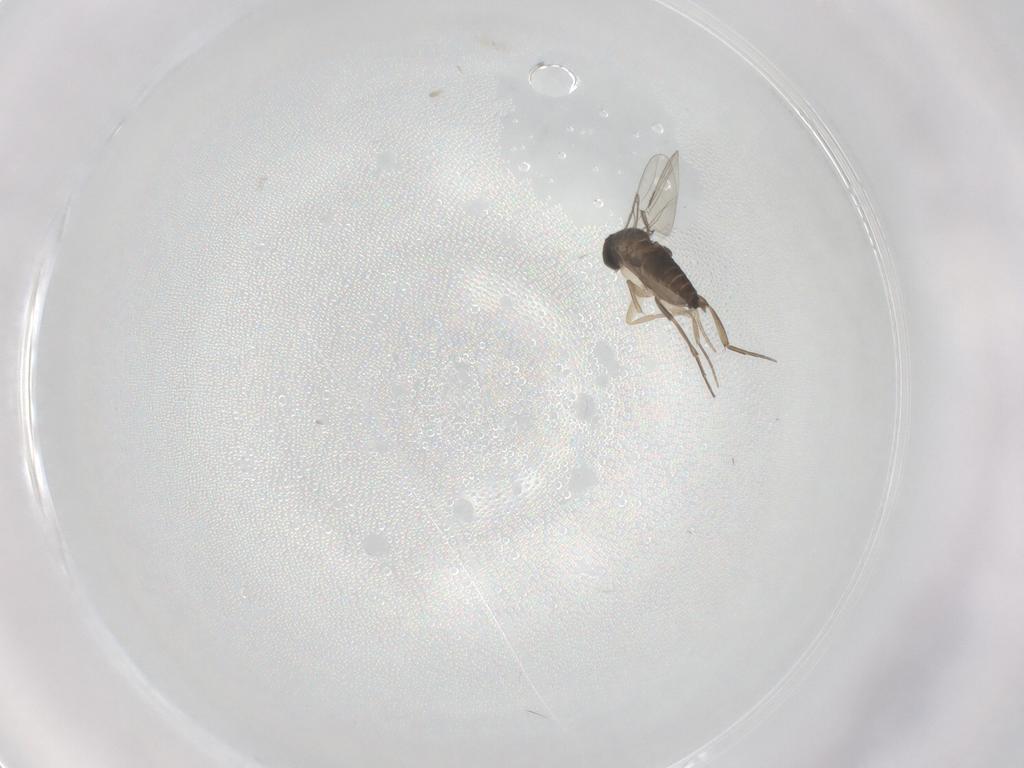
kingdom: Animalia
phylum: Arthropoda
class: Insecta
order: Diptera
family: Phoridae
